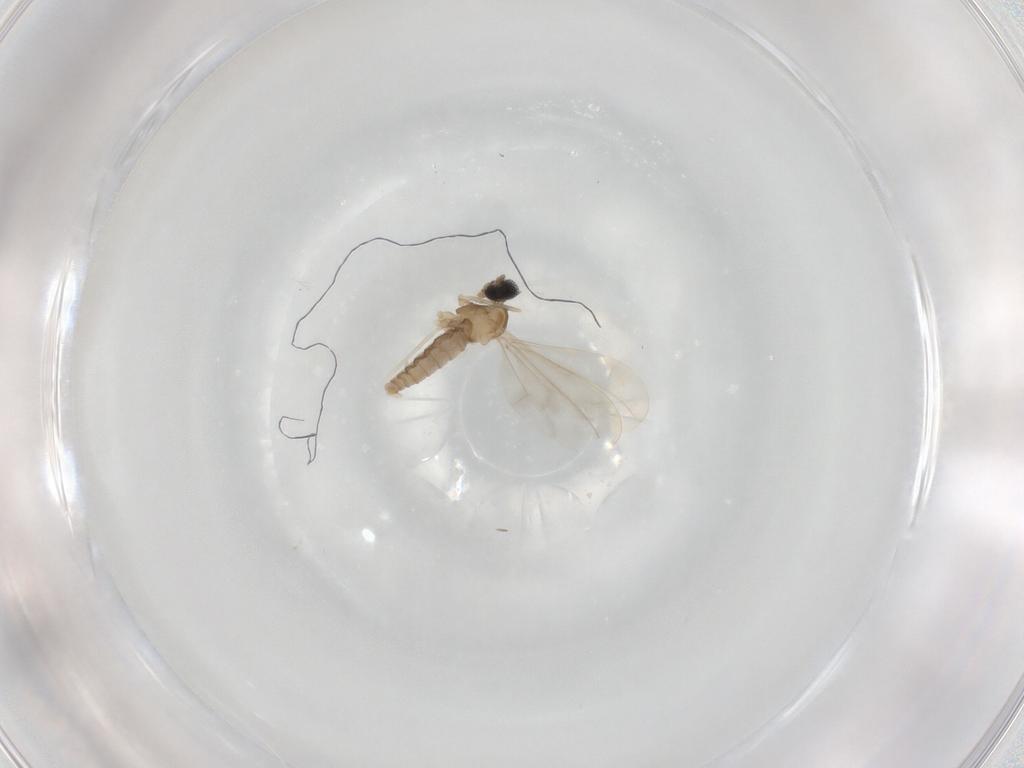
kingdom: Animalia
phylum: Arthropoda
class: Insecta
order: Diptera
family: Cecidomyiidae
